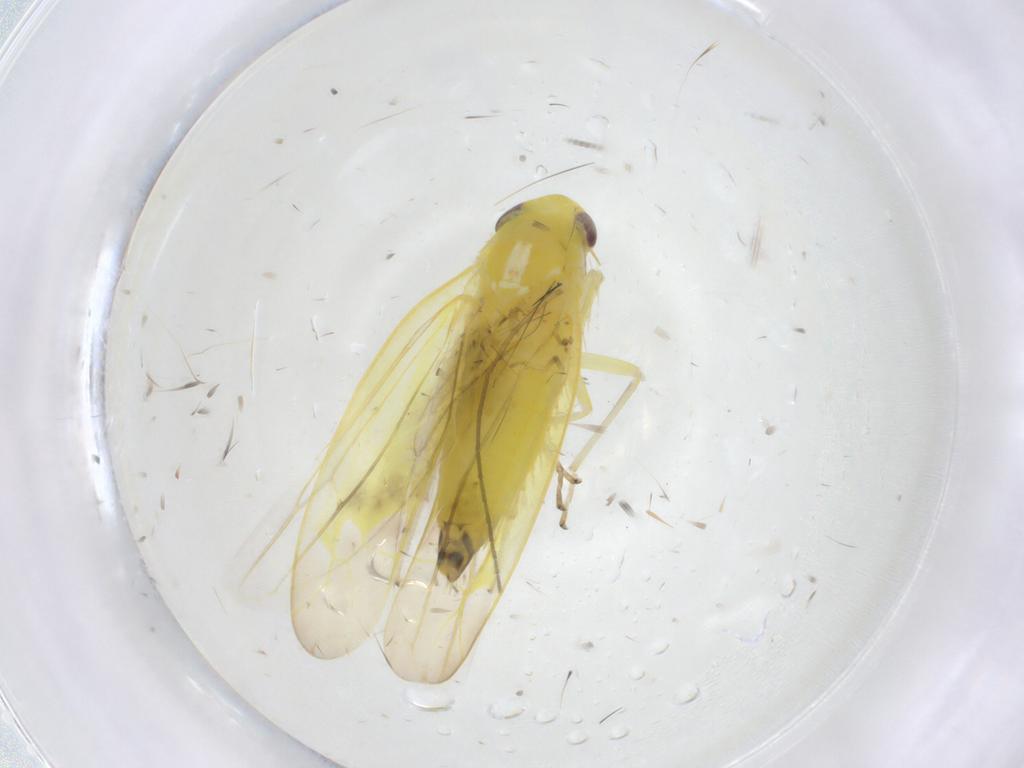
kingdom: Animalia
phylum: Arthropoda
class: Insecta
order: Hemiptera
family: Cicadellidae
